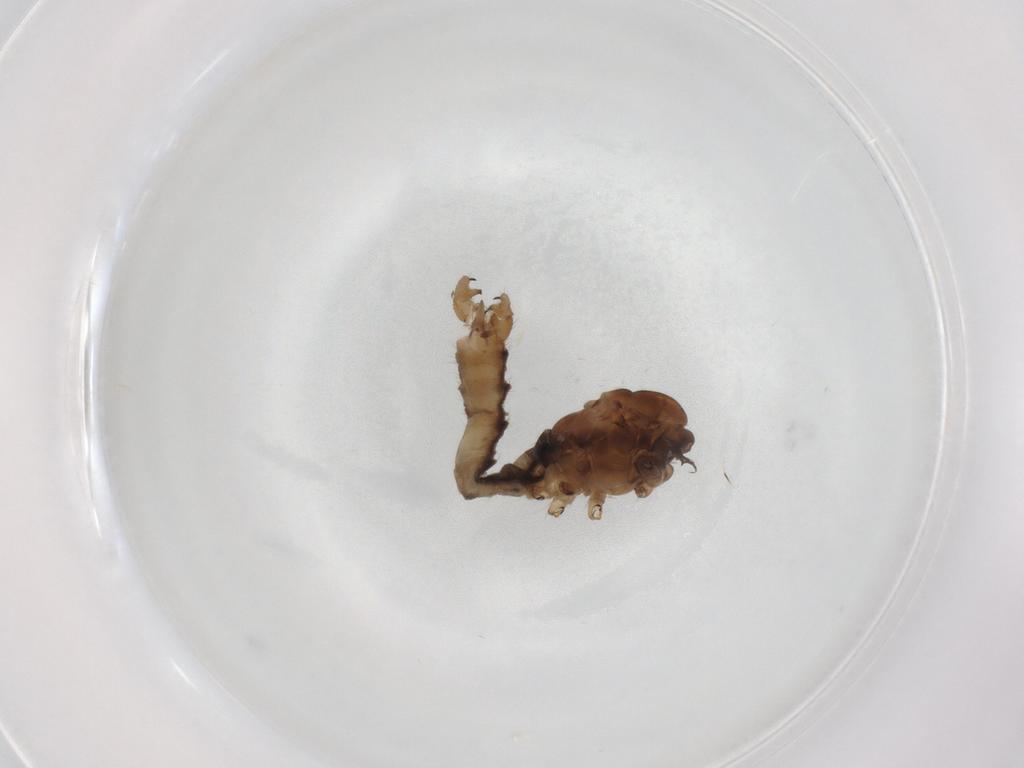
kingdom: Animalia
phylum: Arthropoda
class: Insecta
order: Diptera
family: Limoniidae
